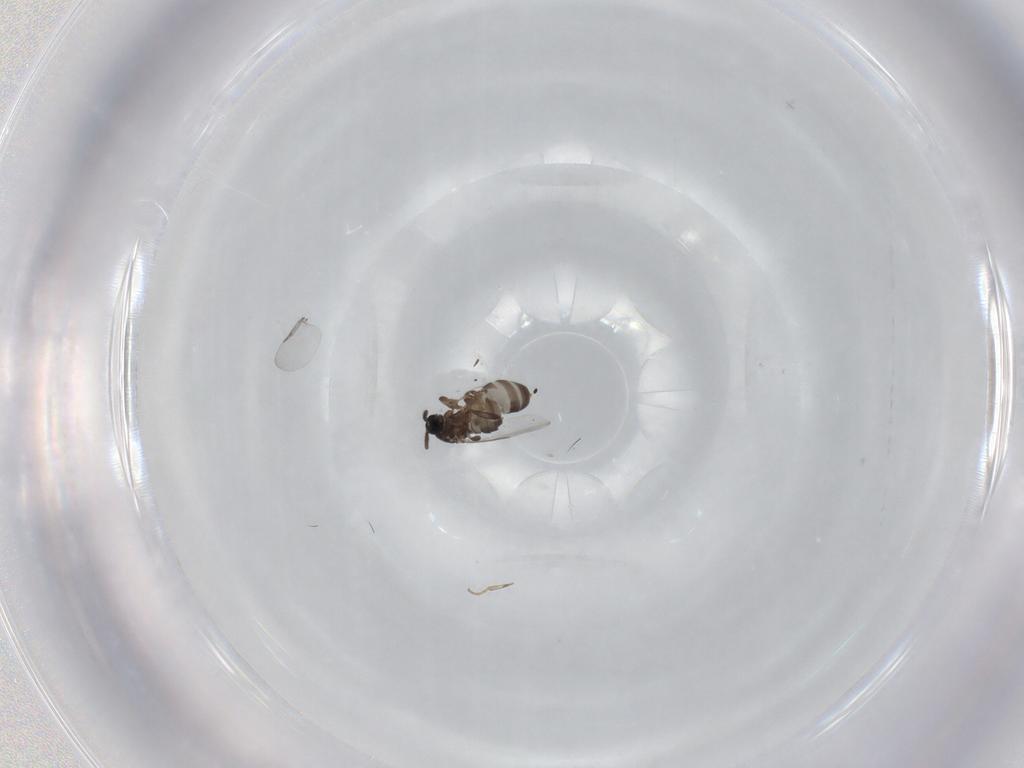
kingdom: Animalia
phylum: Arthropoda
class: Insecta
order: Diptera
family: Scatopsidae
